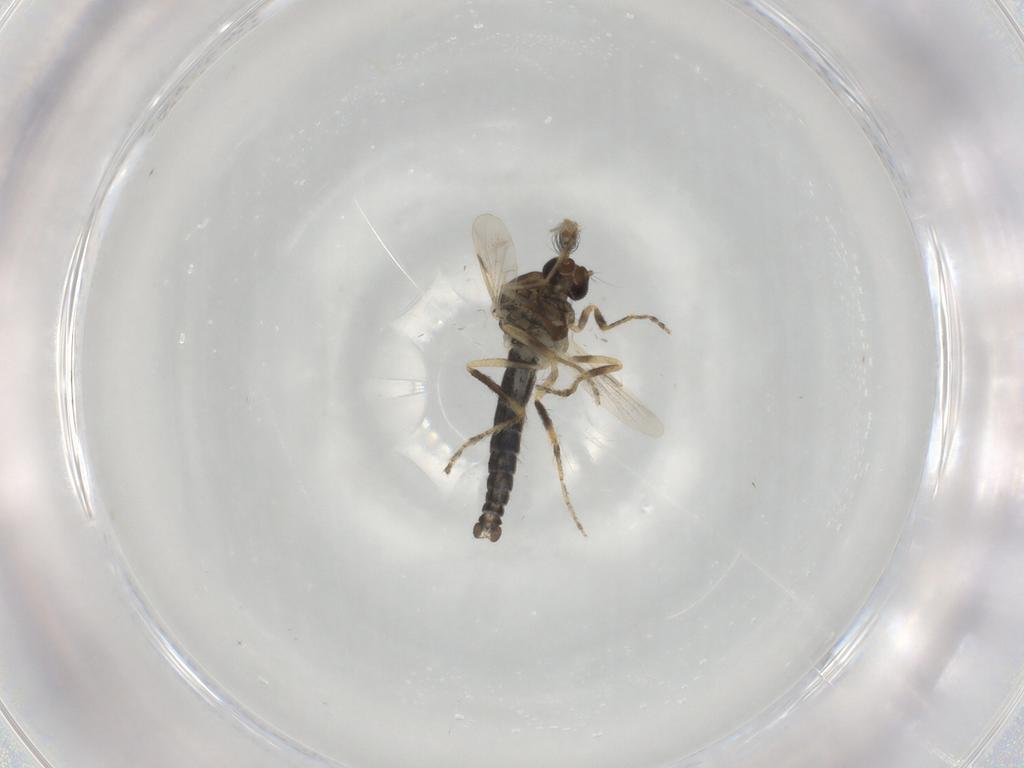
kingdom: Animalia
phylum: Arthropoda
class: Insecta
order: Diptera
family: Ceratopogonidae
